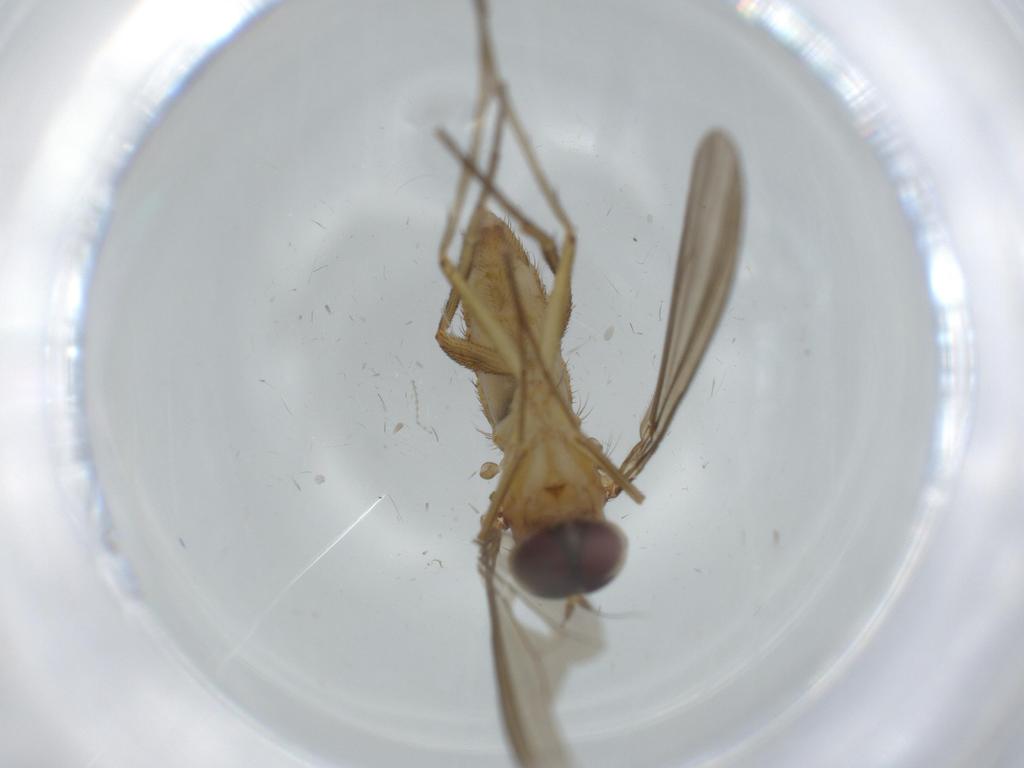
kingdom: Animalia
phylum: Arthropoda
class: Insecta
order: Diptera
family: Dolichopodidae
